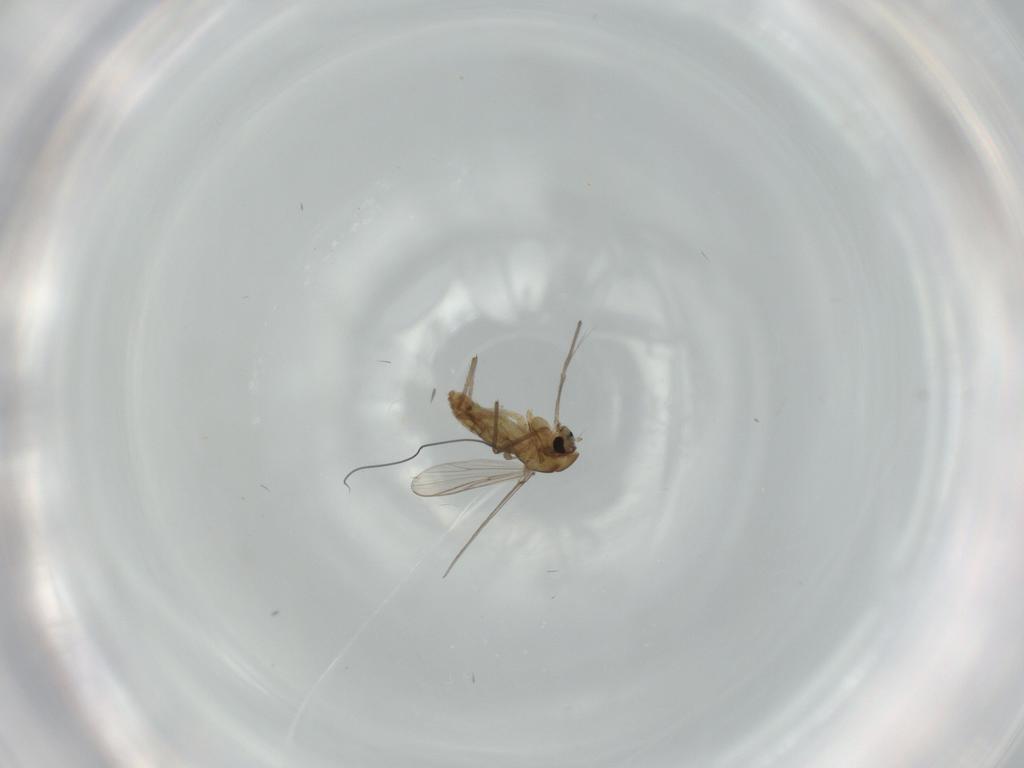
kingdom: Animalia
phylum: Arthropoda
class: Insecta
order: Diptera
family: Chironomidae
